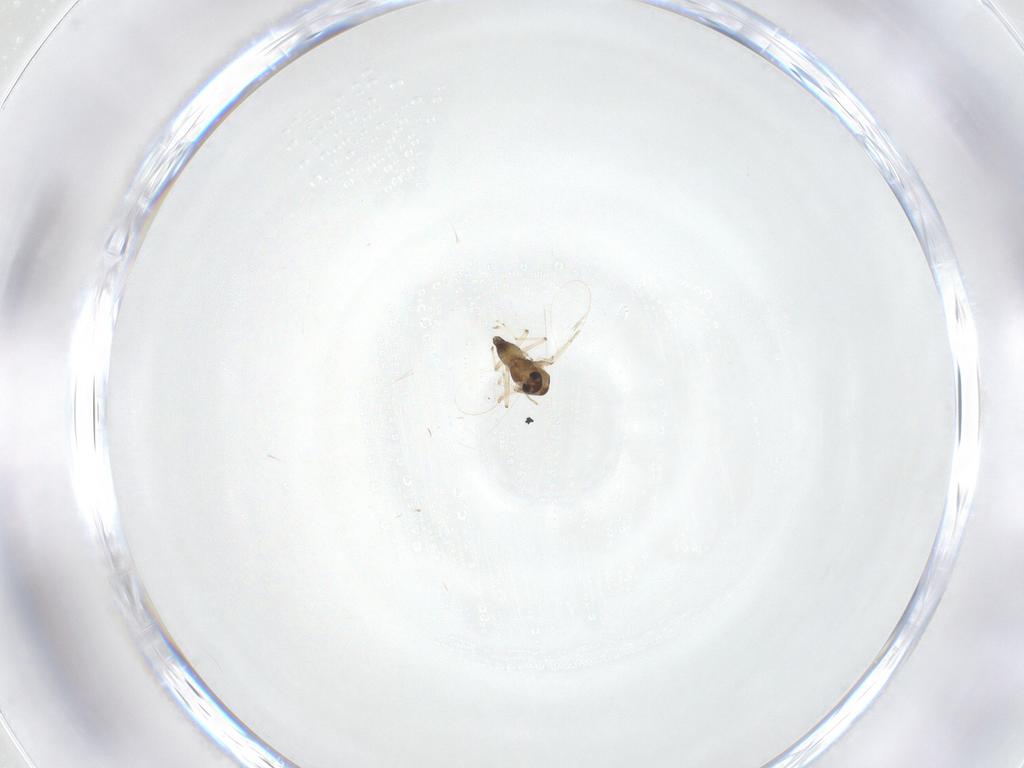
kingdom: Animalia
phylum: Arthropoda
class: Insecta
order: Diptera
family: Chironomidae
